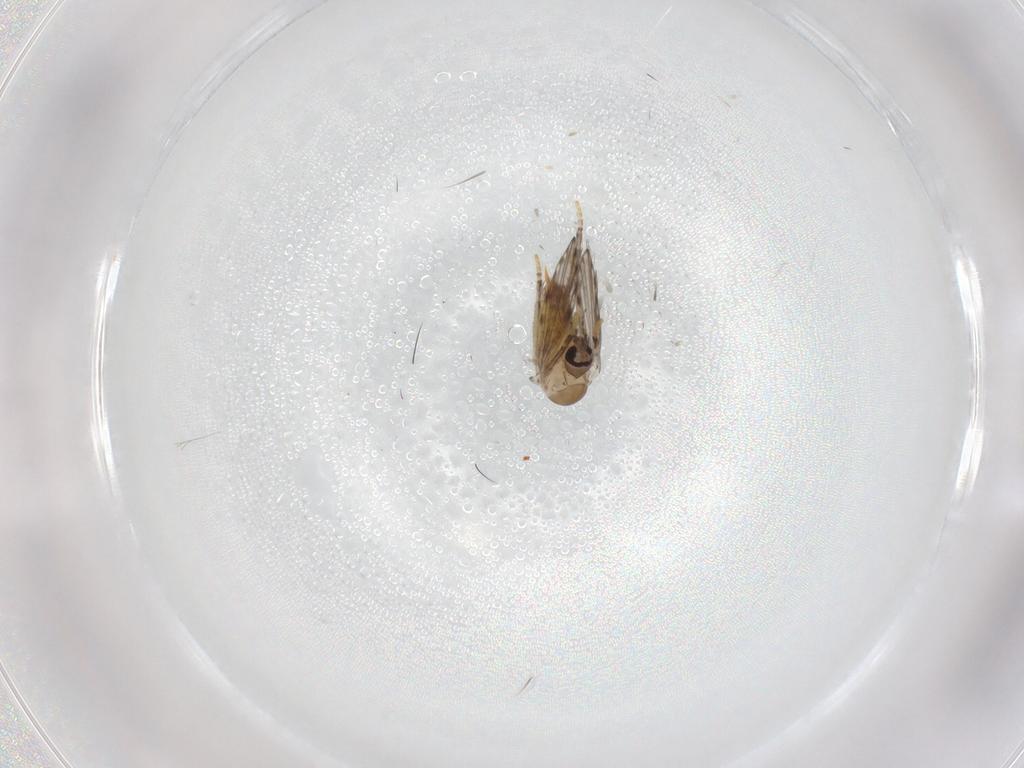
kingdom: Animalia
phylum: Arthropoda
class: Insecta
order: Diptera
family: Psychodidae
